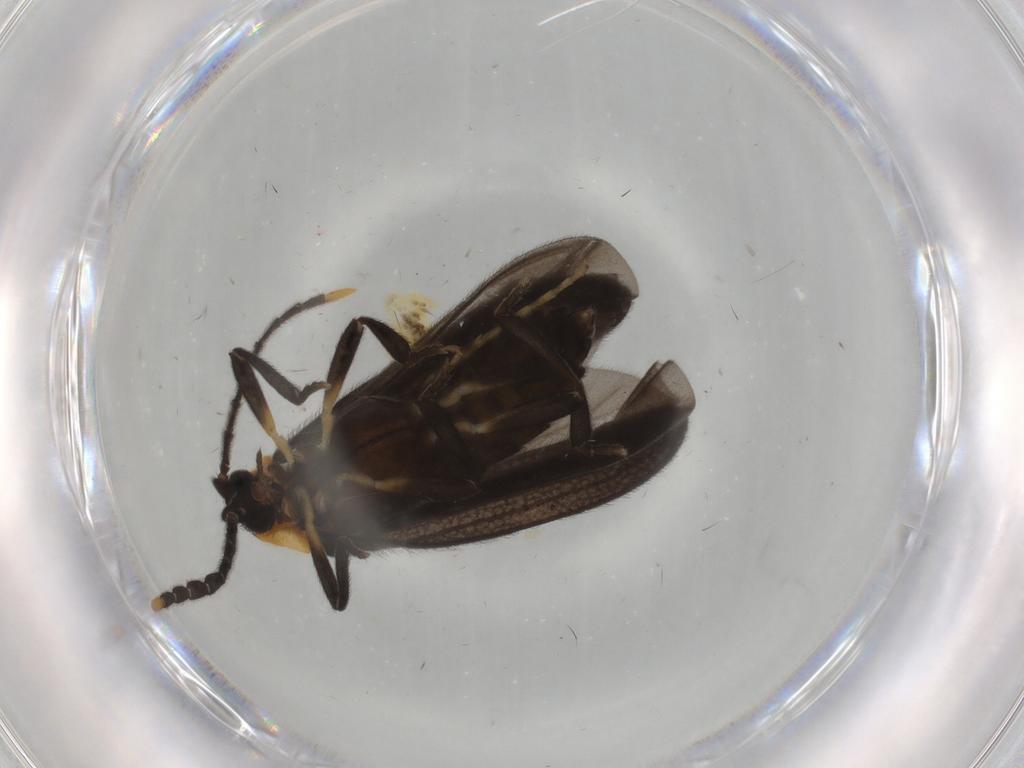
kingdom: Animalia
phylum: Arthropoda
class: Insecta
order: Coleoptera
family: Lycidae
